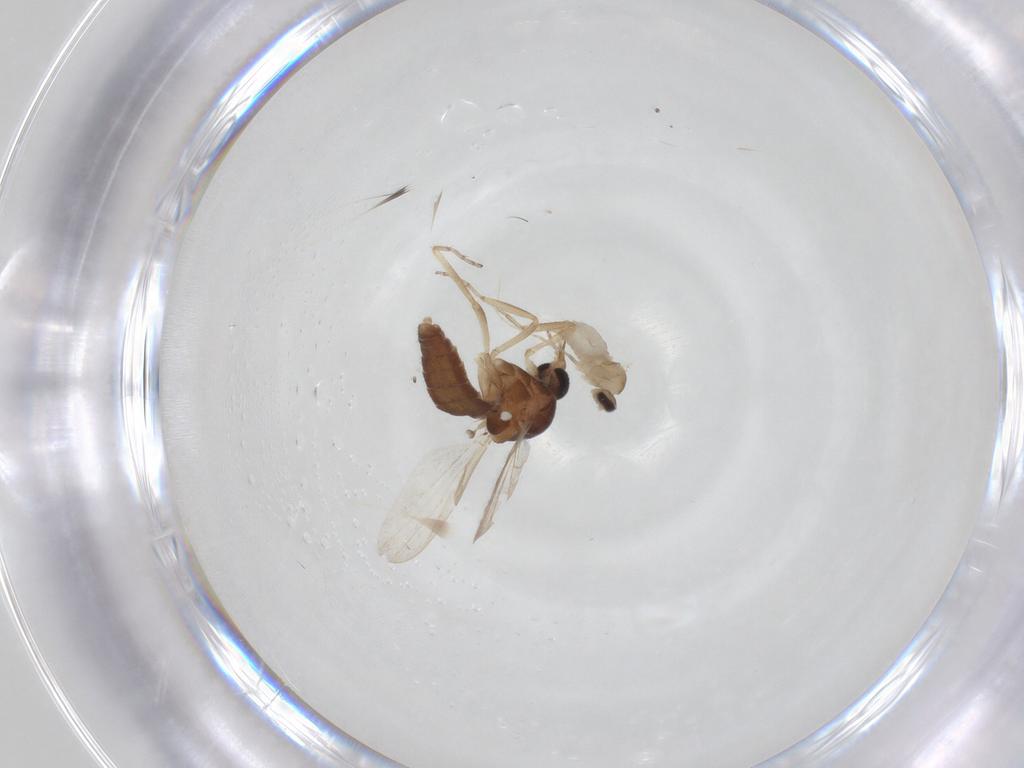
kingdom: Animalia
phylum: Arthropoda
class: Insecta
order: Diptera
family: Cecidomyiidae
